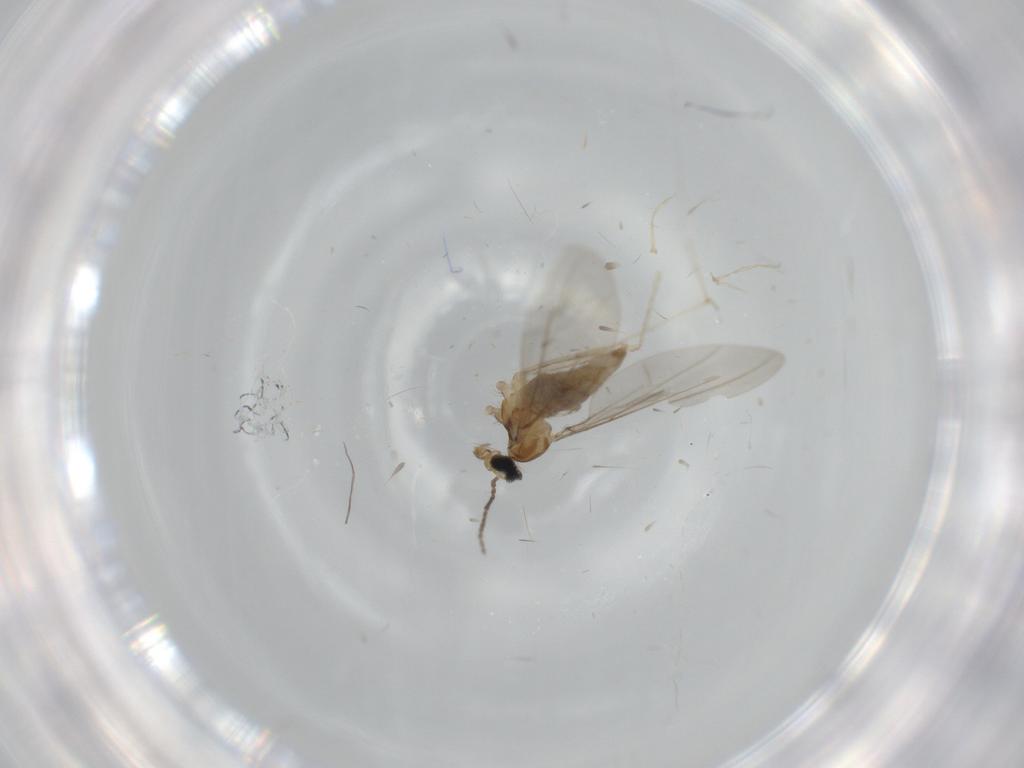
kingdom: Animalia
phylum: Arthropoda
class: Insecta
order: Diptera
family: Cecidomyiidae
